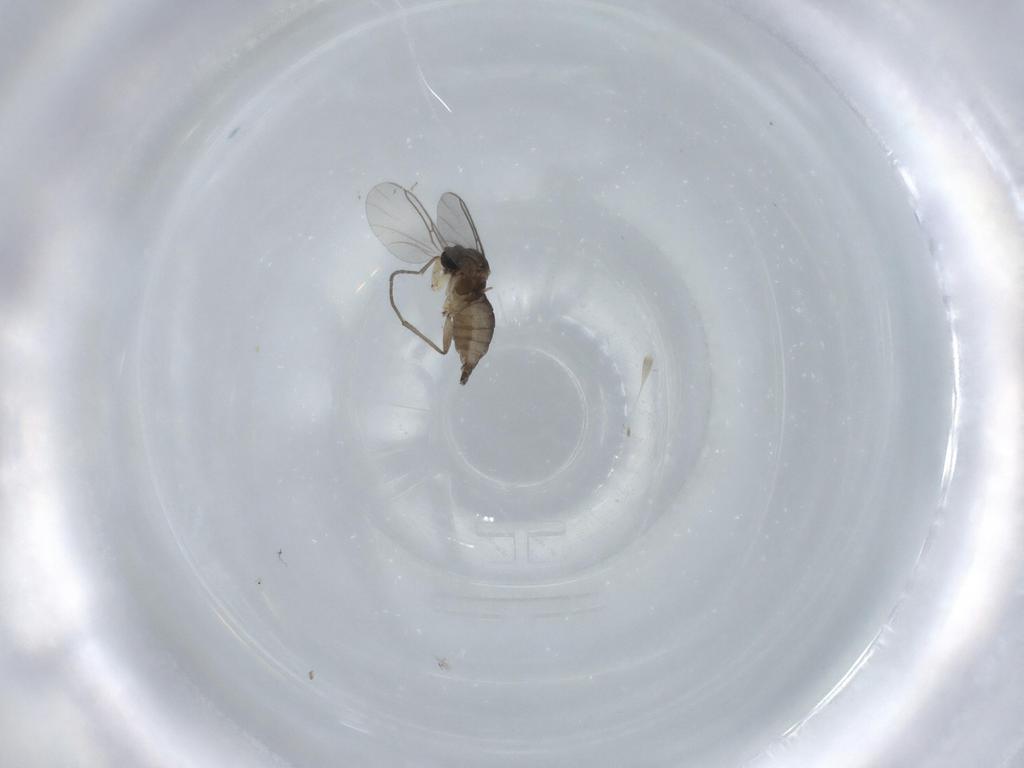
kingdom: Animalia
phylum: Arthropoda
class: Insecta
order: Diptera
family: Sciaridae
